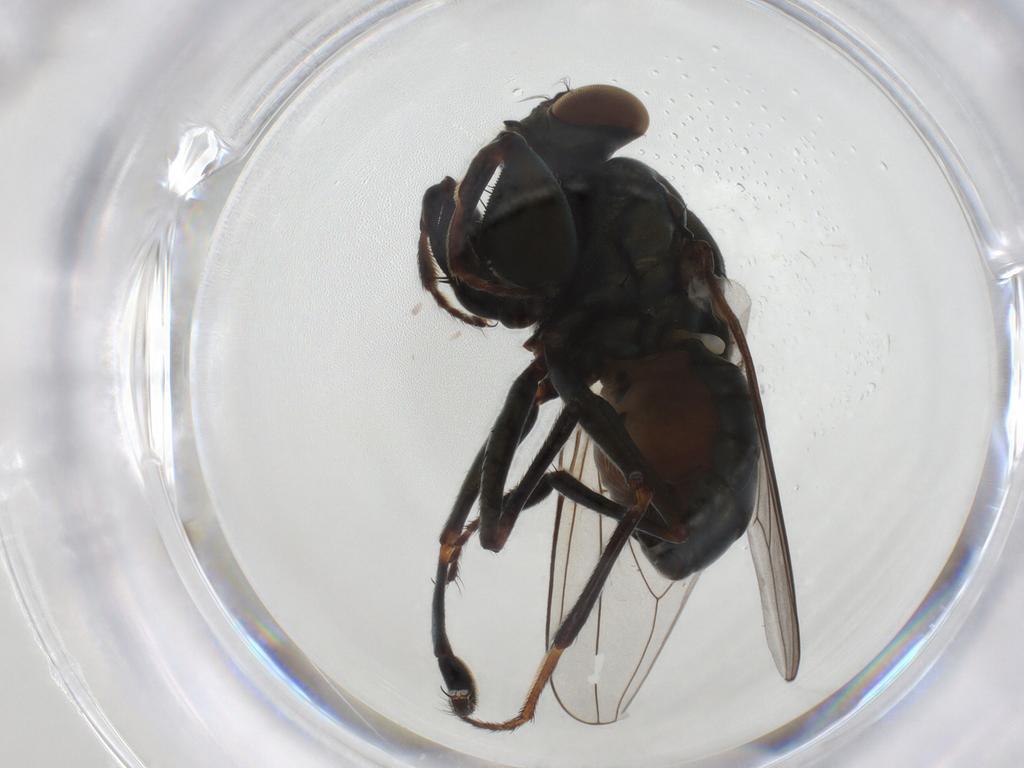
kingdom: Animalia
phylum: Arthropoda
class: Insecta
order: Diptera
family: Ephydridae
